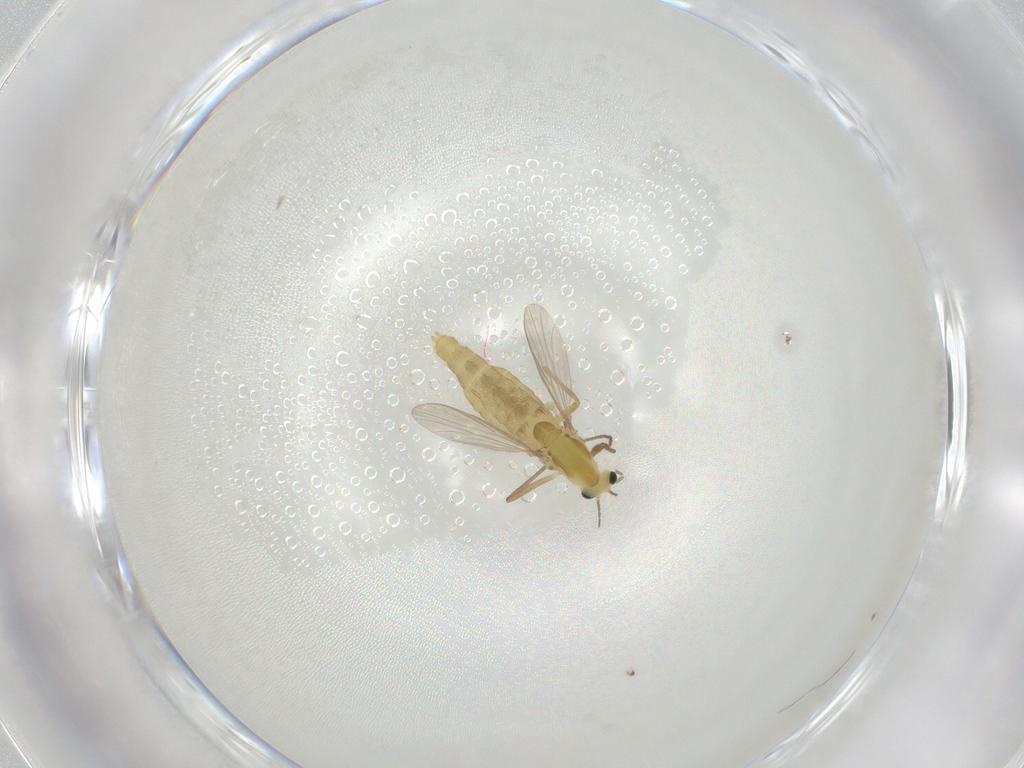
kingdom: Animalia
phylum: Arthropoda
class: Insecta
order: Diptera
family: Chironomidae
